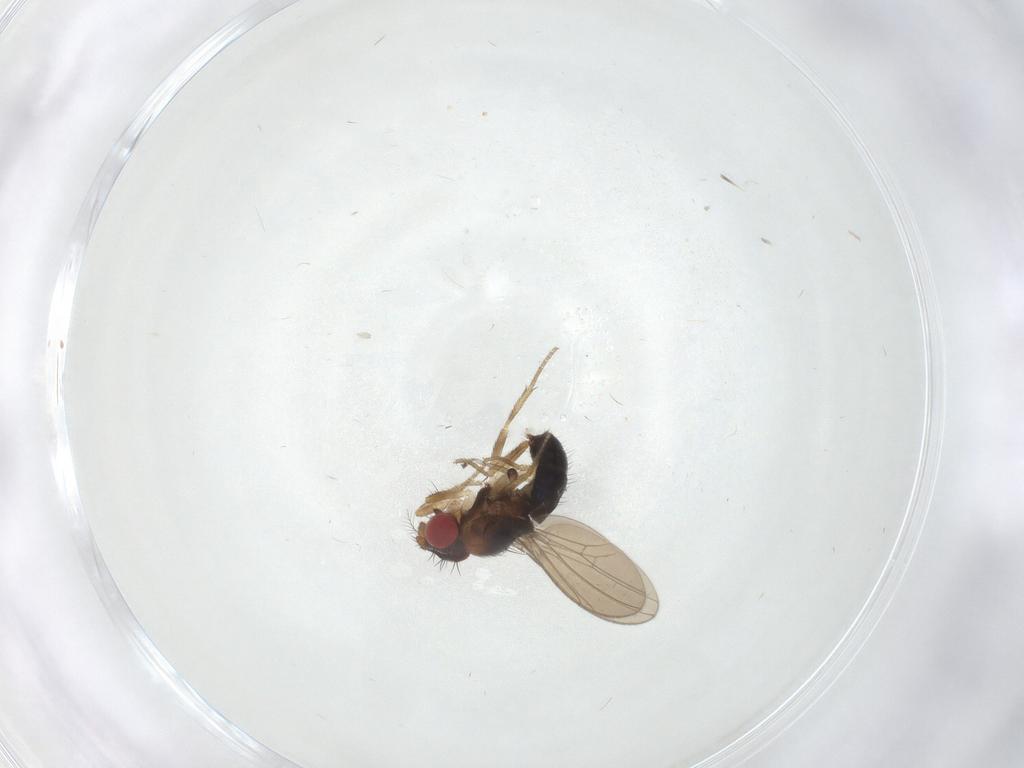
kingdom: Animalia
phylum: Arthropoda
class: Insecta
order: Diptera
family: Drosophilidae
